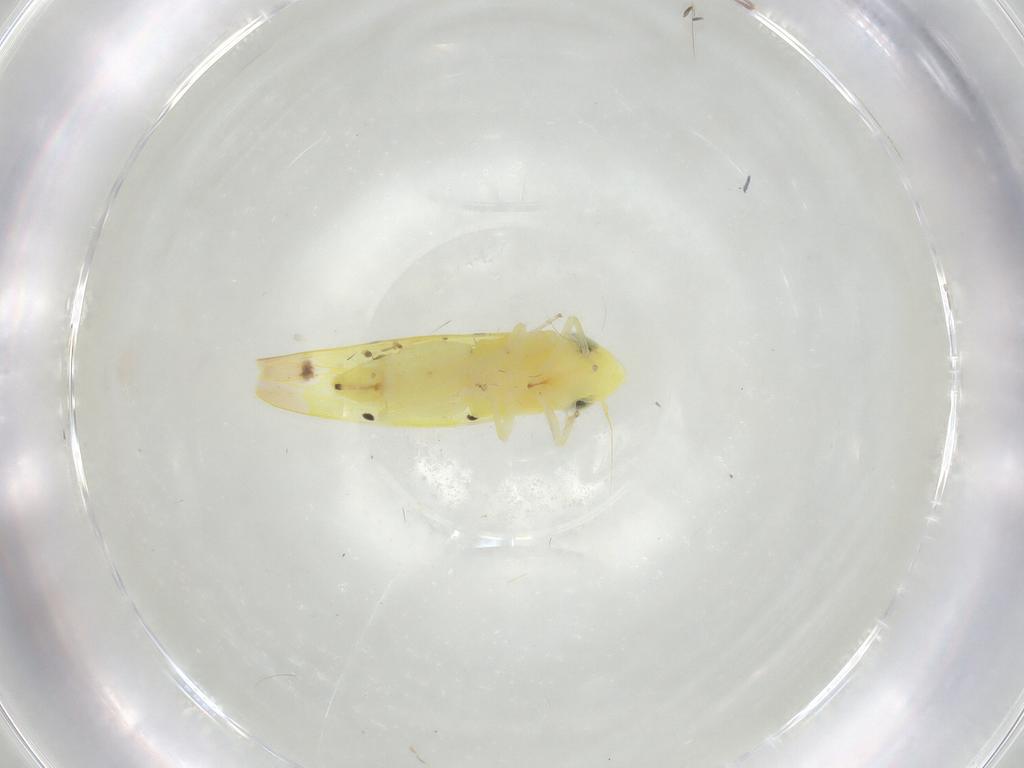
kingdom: Animalia
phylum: Arthropoda
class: Insecta
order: Hemiptera
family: Cicadellidae
